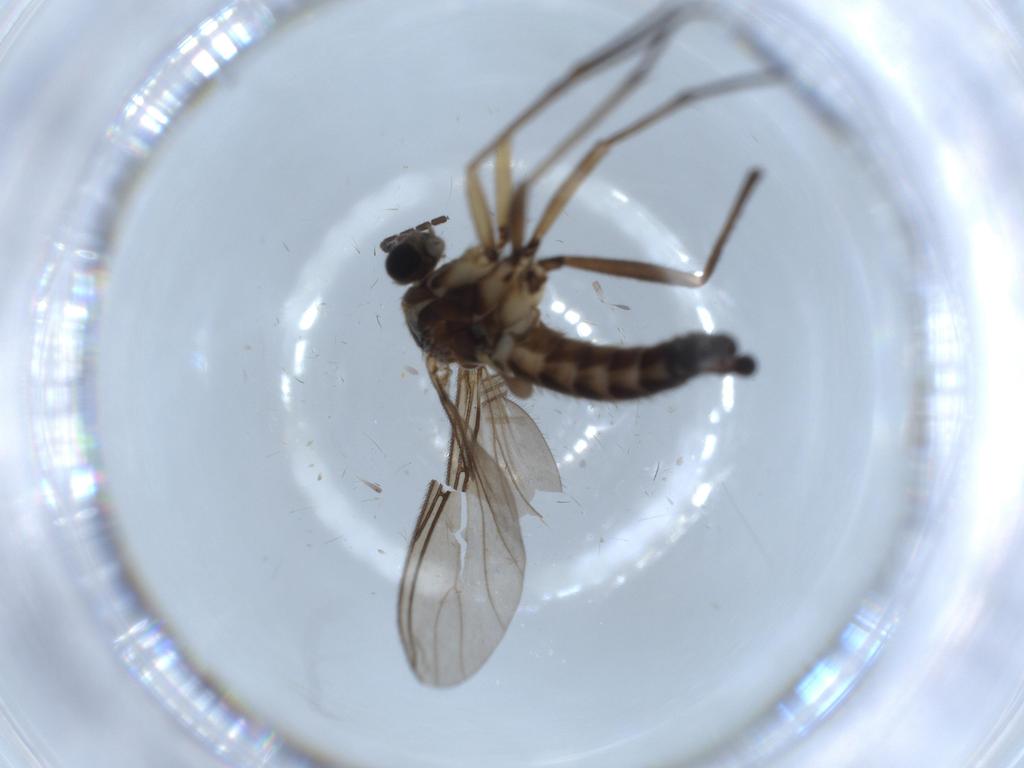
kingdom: Animalia
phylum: Arthropoda
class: Insecta
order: Diptera
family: Sciaridae
